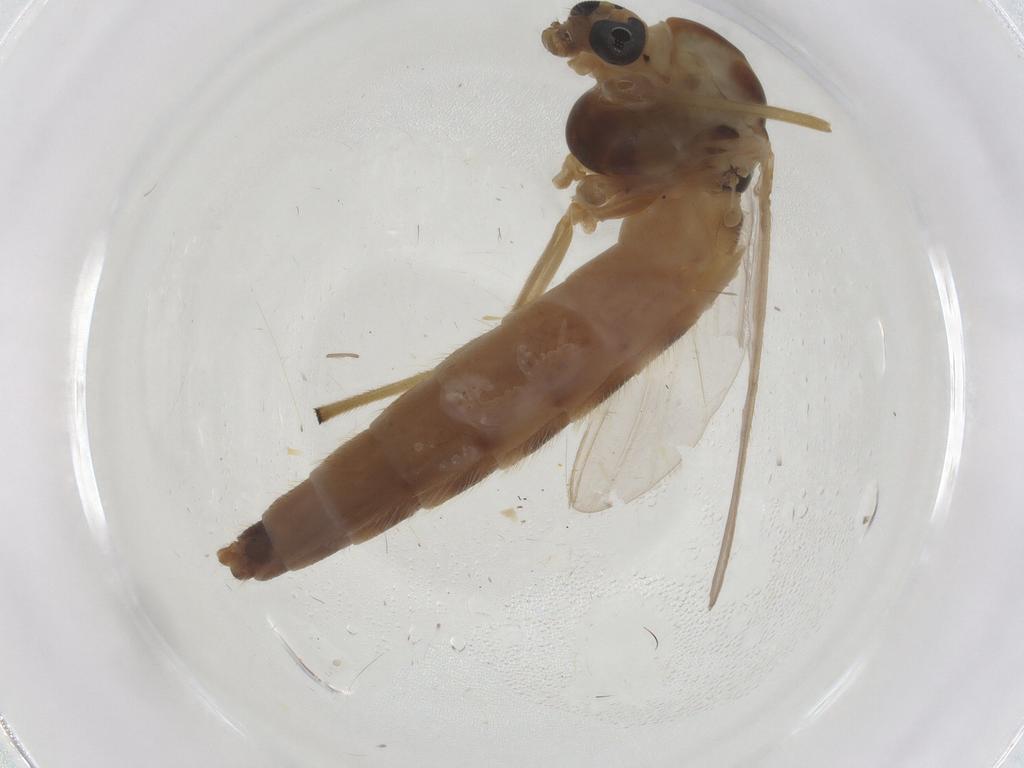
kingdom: Animalia
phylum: Arthropoda
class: Insecta
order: Diptera
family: Chironomidae
